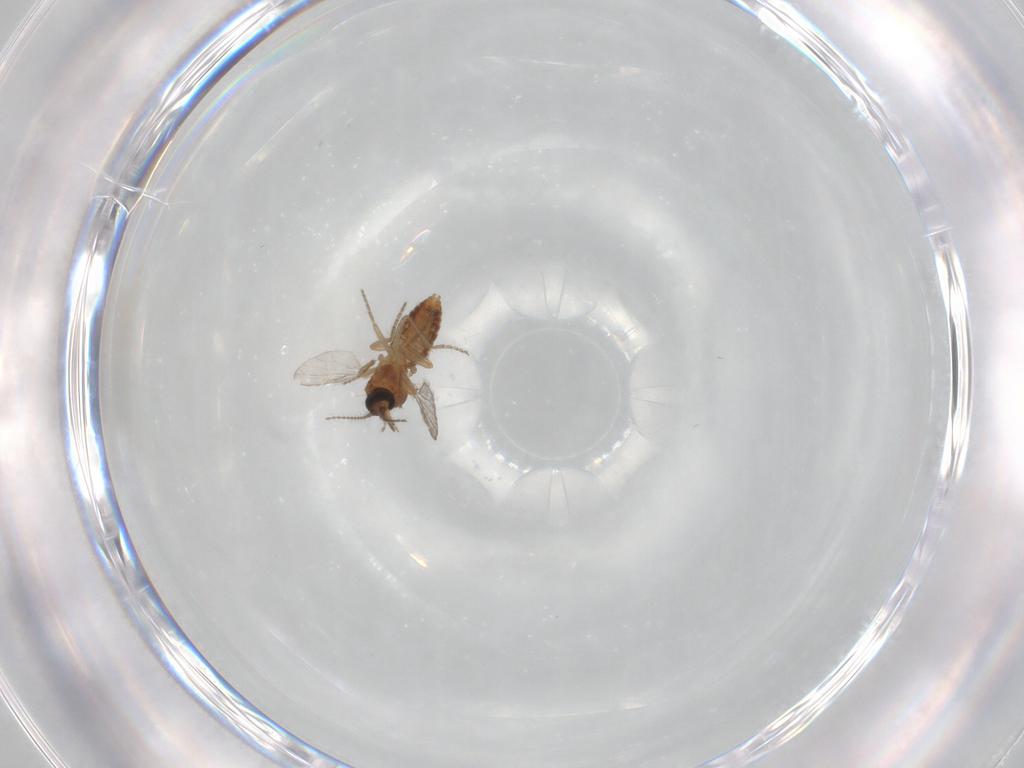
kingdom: Animalia
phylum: Arthropoda
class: Insecta
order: Diptera
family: Ceratopogonidae
